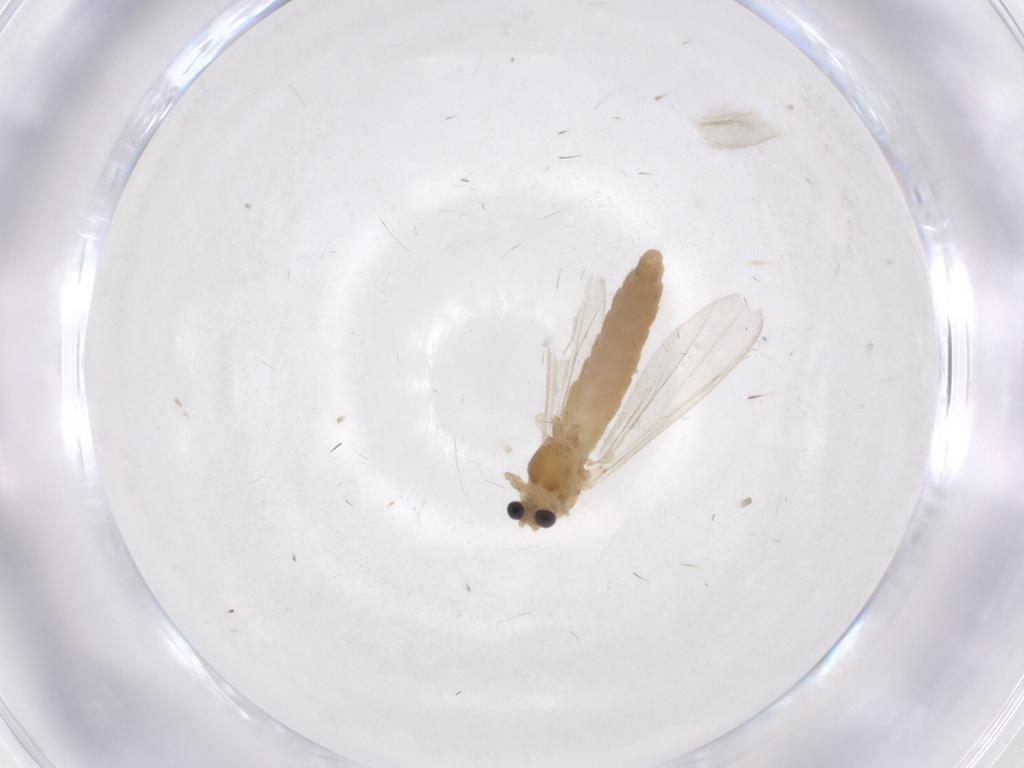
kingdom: Animalia
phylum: Arthropoda
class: Insecta
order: Diptera
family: Chironomidae
